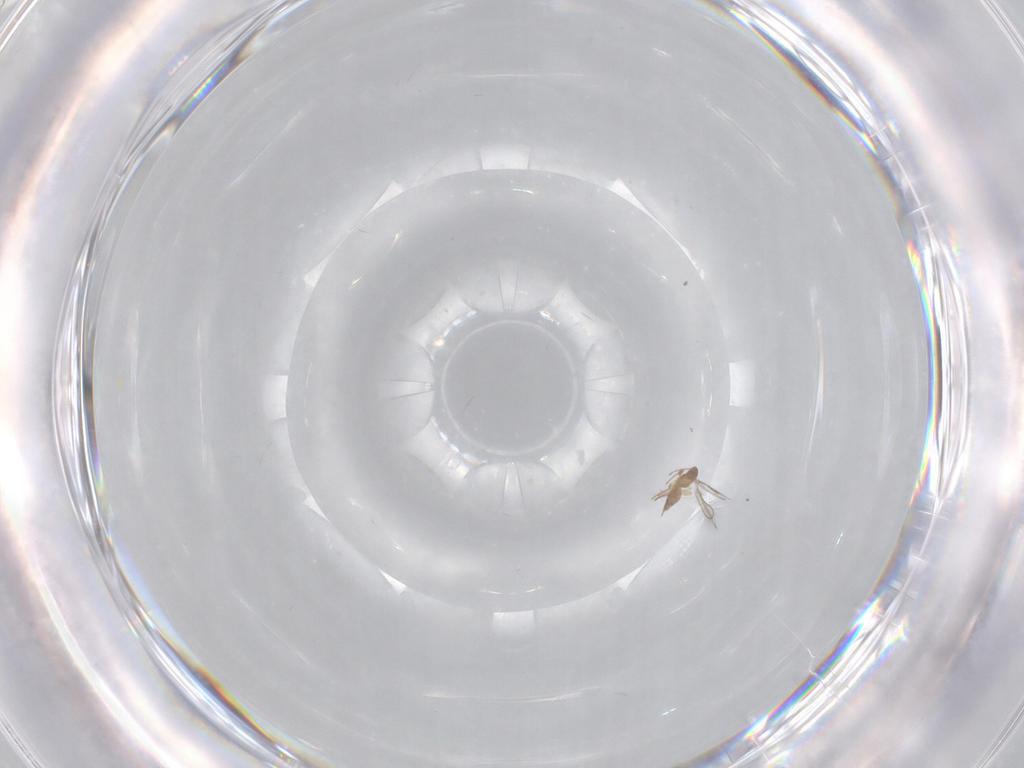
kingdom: Animalia
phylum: Arthropoda
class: Insecta
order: Hymenoptera
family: Mymaridae
